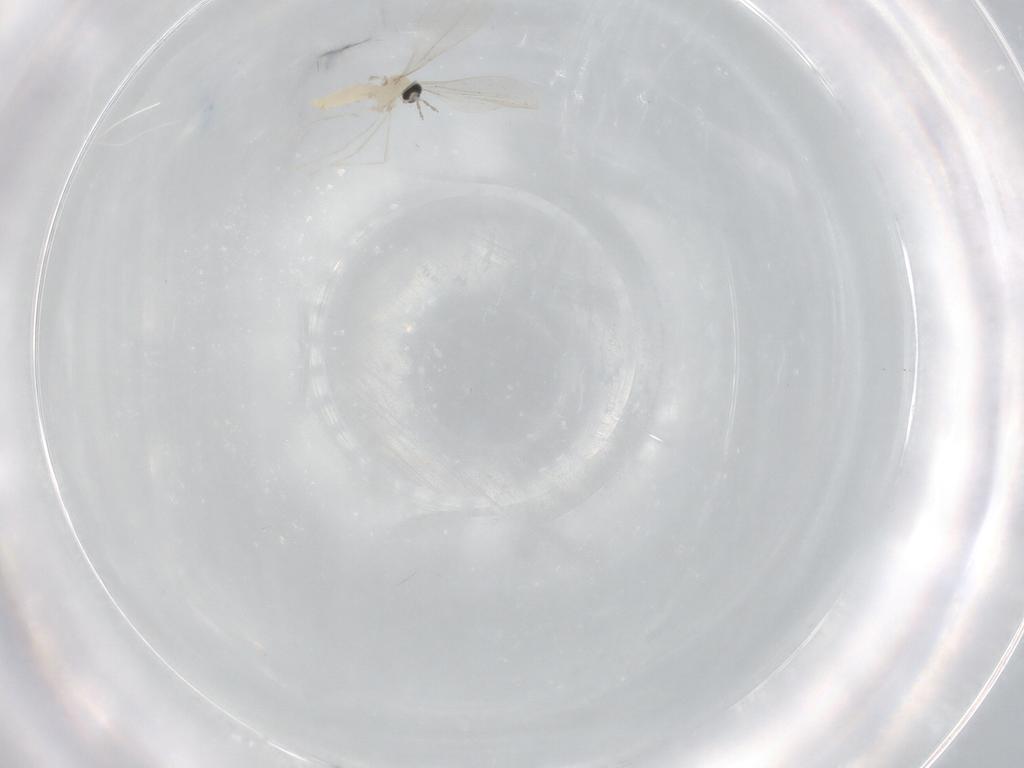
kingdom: Animalia
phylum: Arthropoda
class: Insecta
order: Diptera
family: Cecidomyiidae
